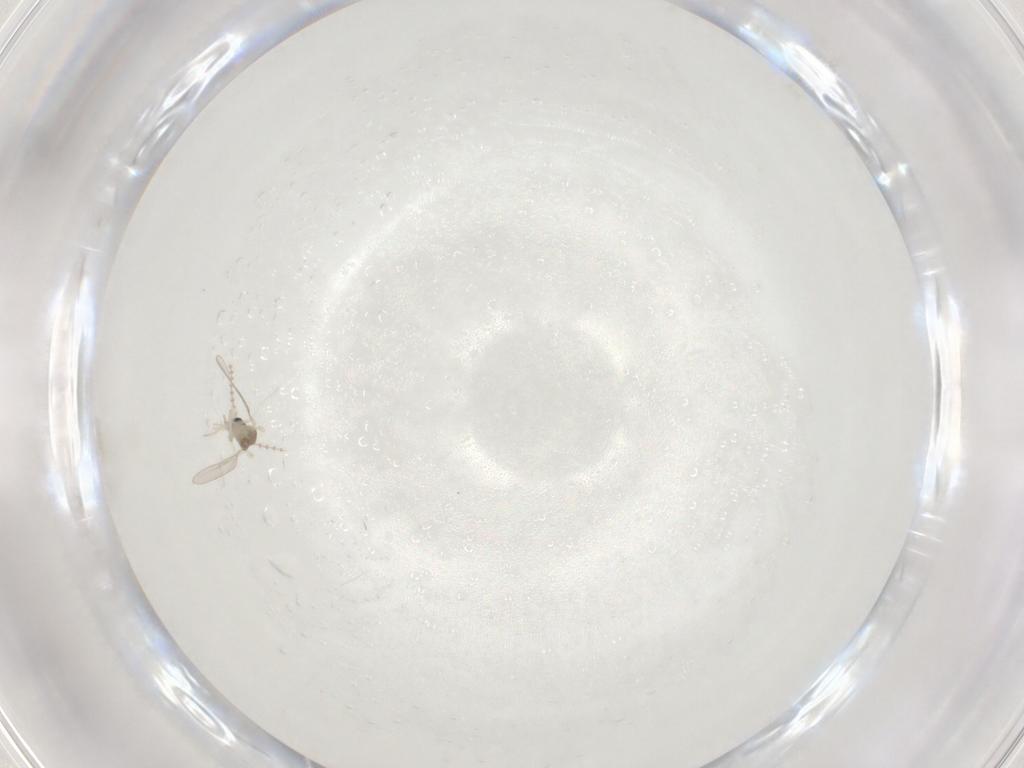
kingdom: Animalia
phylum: Arthropoda
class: Insecta
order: Diptera
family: Cecidomyiidae
